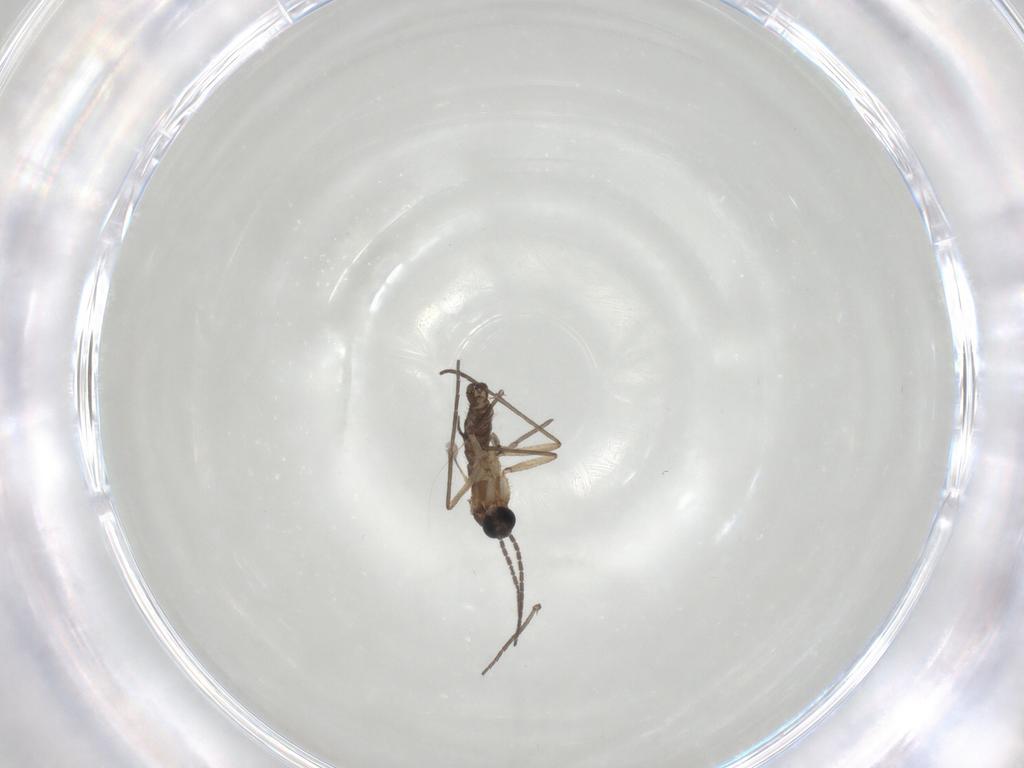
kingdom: Animalia
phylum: Arthropoda
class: Insecta
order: Diptera
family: Sciaridae
